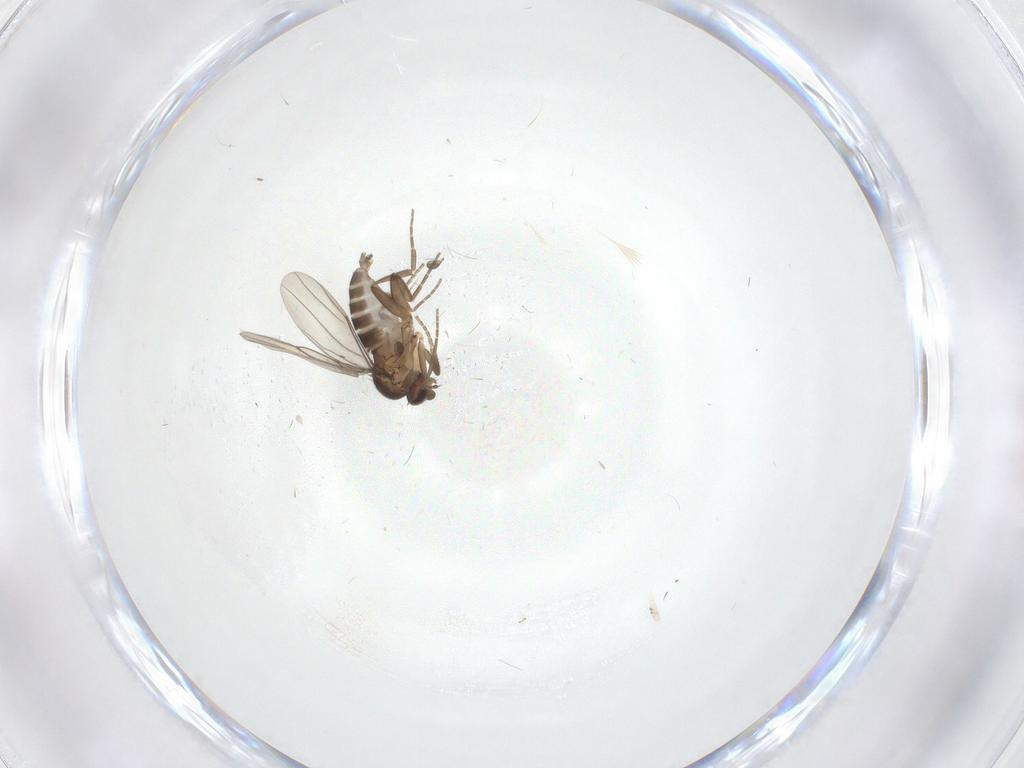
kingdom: Animalia
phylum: Arthropoda
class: Insecta
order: Diptera
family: Phoridae
